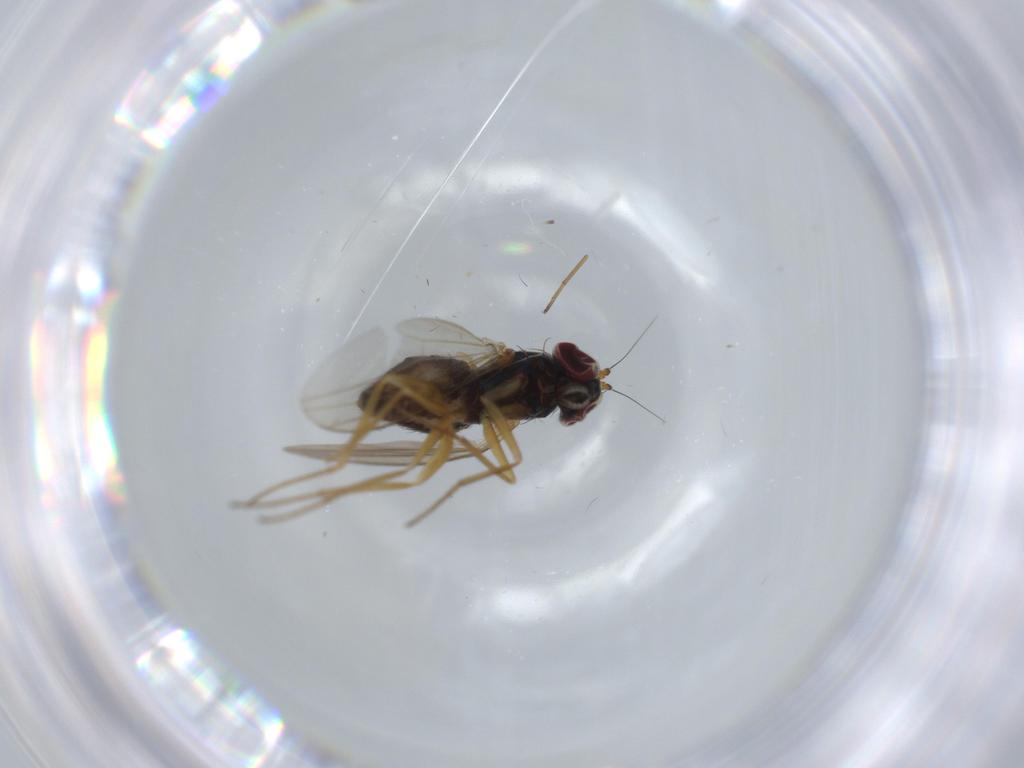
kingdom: Animalia
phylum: Arthropoda
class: Insecta
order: Diptera
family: Dolichopodidae
